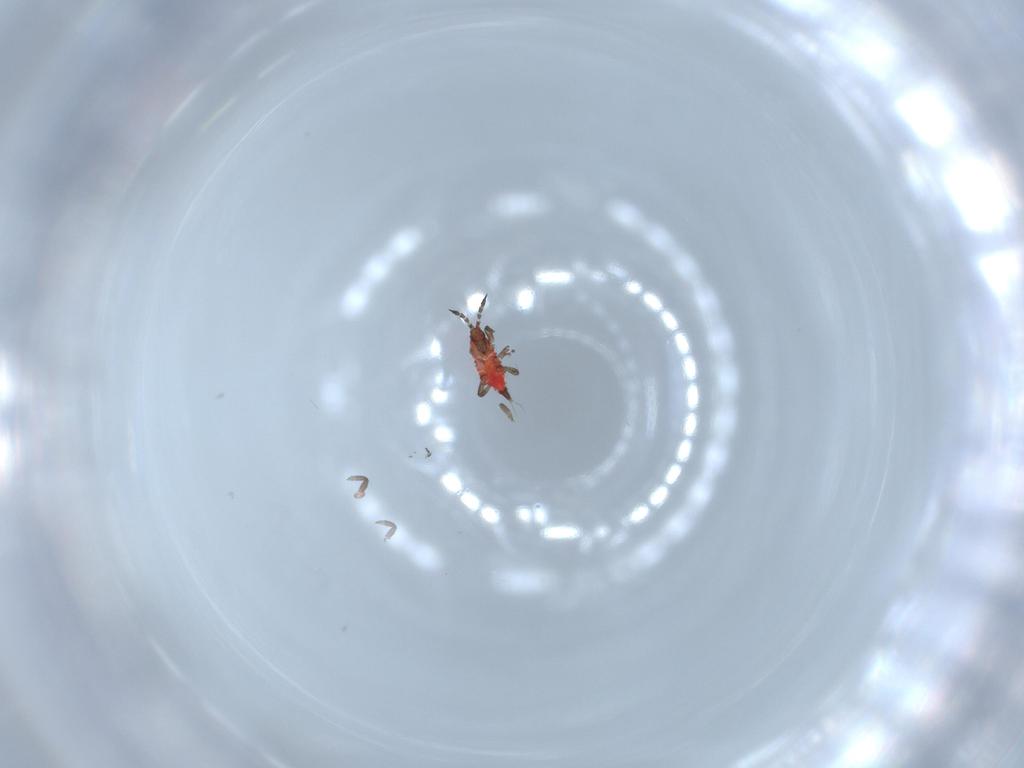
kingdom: Animalia
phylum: Arthropoda
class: Insecta
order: Thysanoptera
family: Phlaeothripidae
